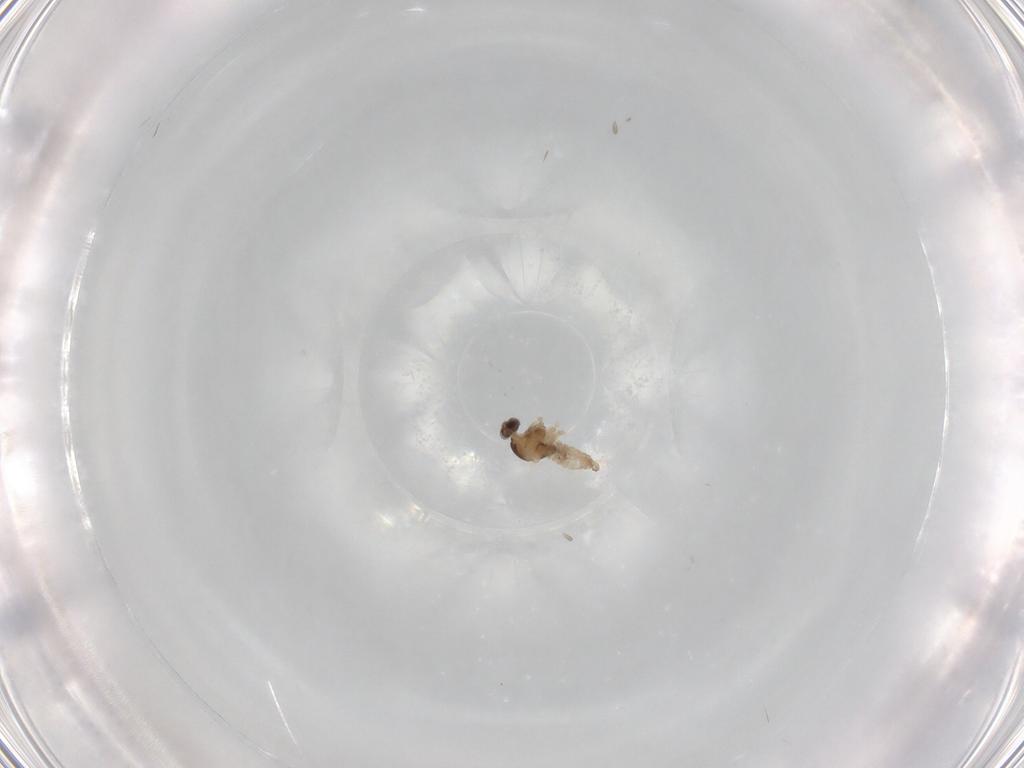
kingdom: Animalia
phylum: Arthropoda
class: Insecta
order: Diptera
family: Cecidomyiidae
